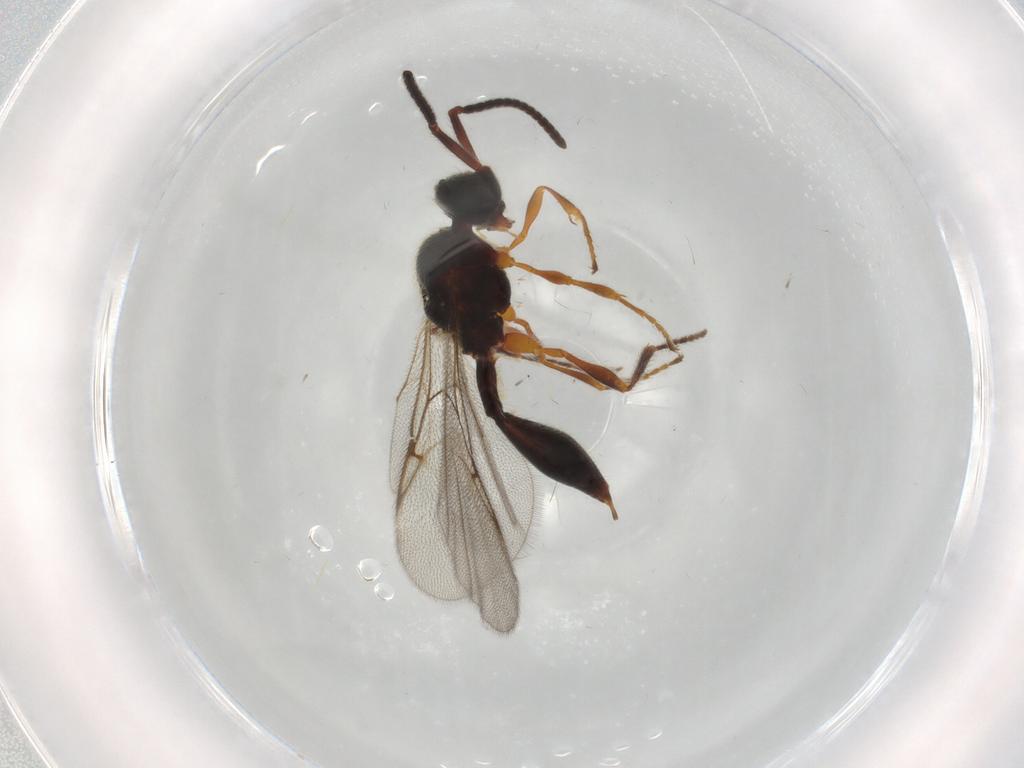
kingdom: Animalia
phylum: Arthropoda
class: Insecta
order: Hymenoptera
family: Diapriidae
